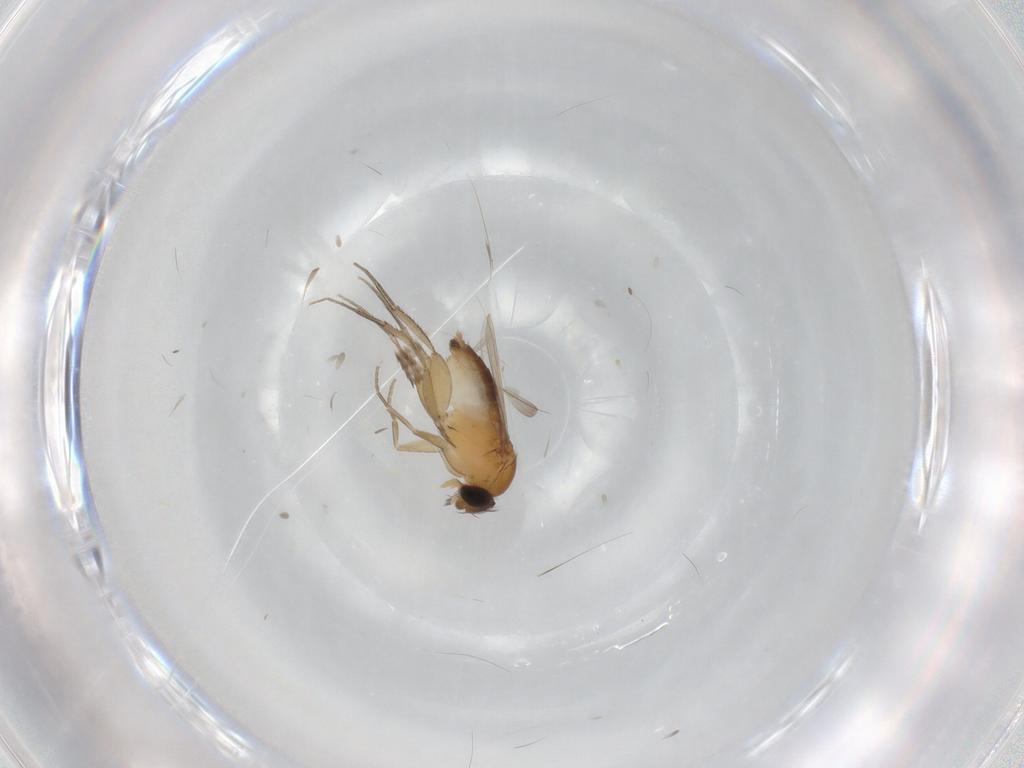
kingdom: Animalia
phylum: Arthropoda
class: Insecta
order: Diptera
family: Phoridae
